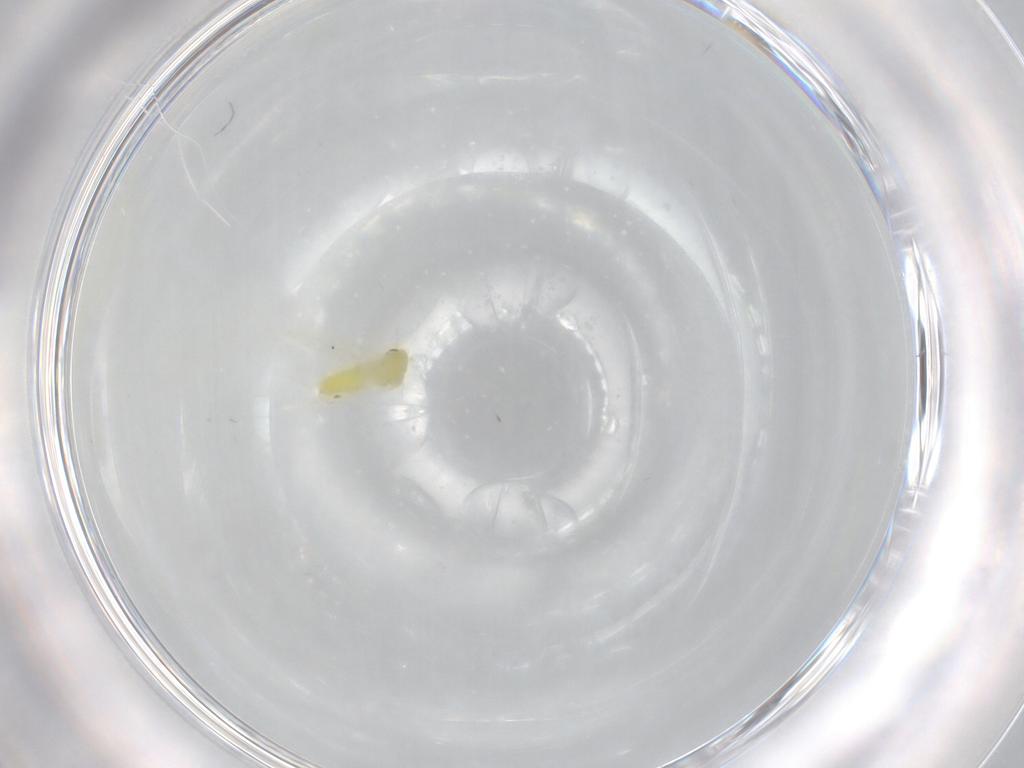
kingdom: Animalia
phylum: Arthropoda
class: Insecta
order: Hemiptera
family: Aleyrodidae
